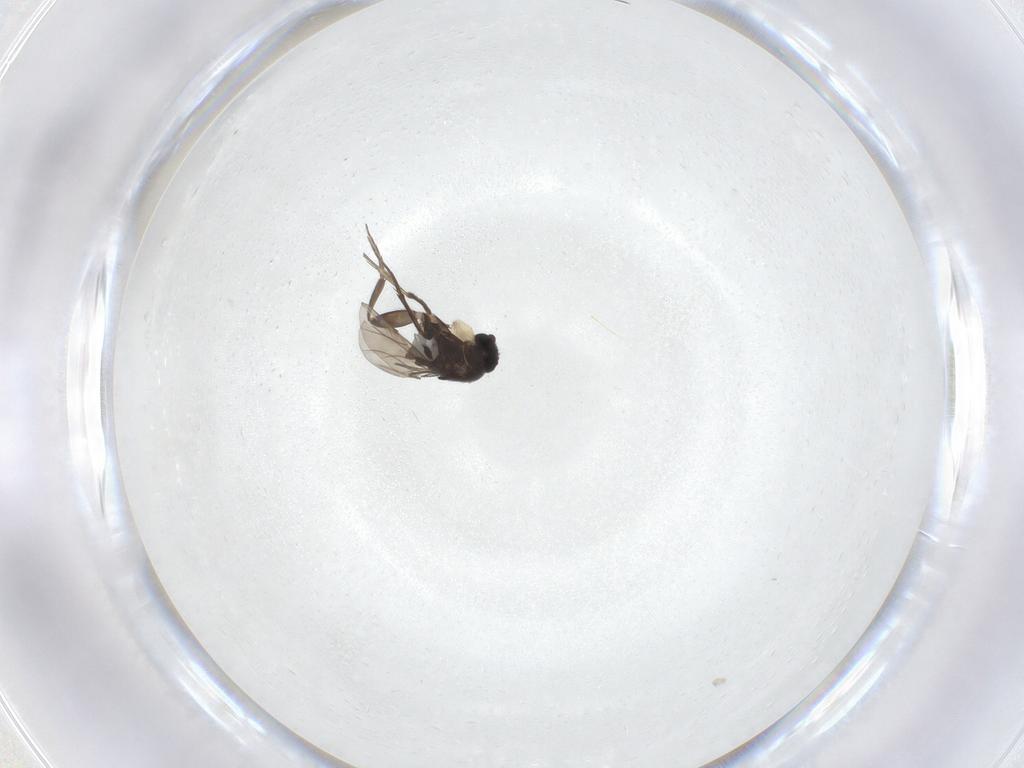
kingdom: Animalia
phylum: Arthropoda
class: Insecta
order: Diptera
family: Phoridae
